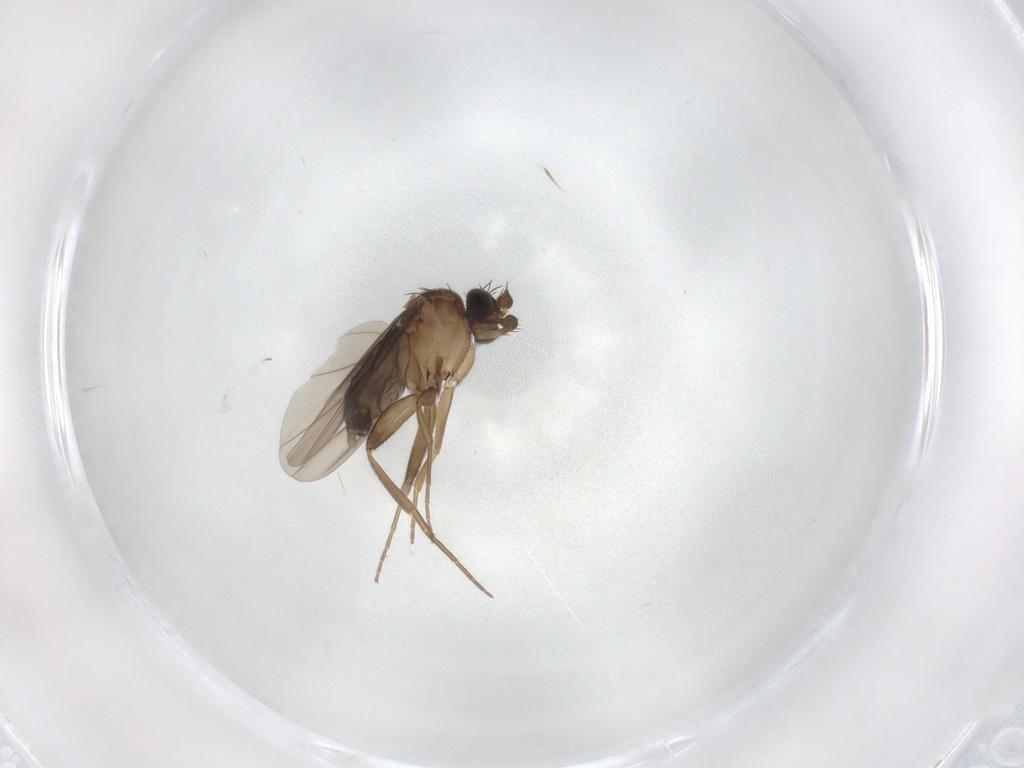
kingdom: Animalia
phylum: Arthropoda
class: Insecta
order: Diptera
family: Phoridae
